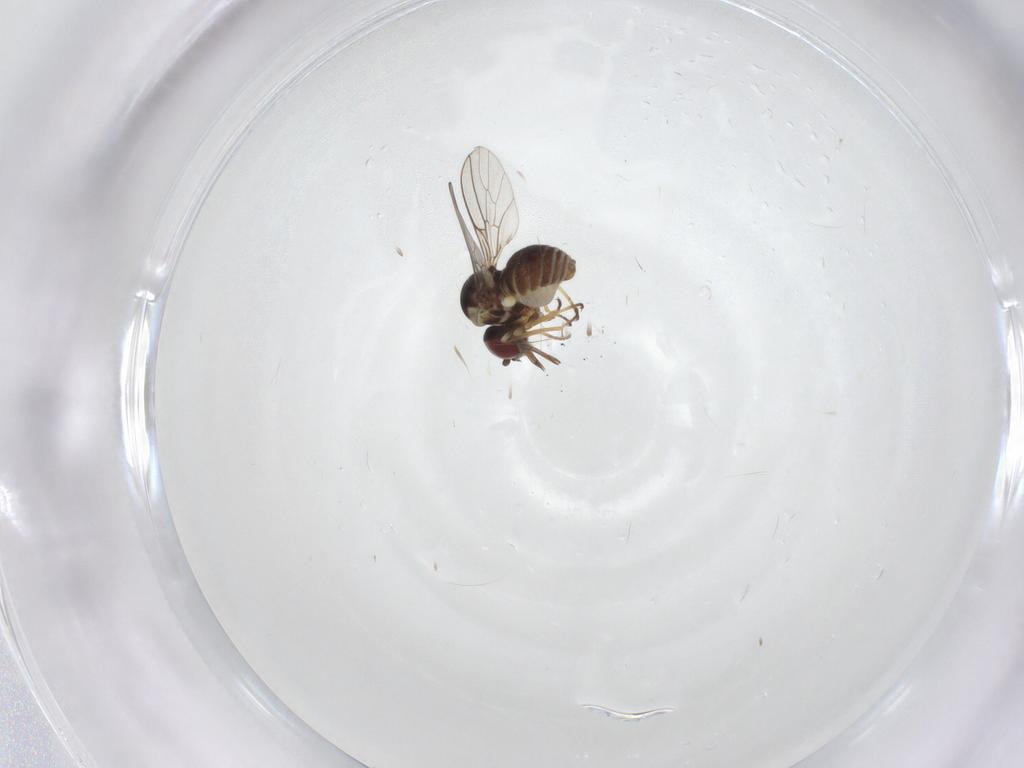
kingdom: Animalia
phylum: Arthropoda
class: Insecta
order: Diptera
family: Bombyliidae
